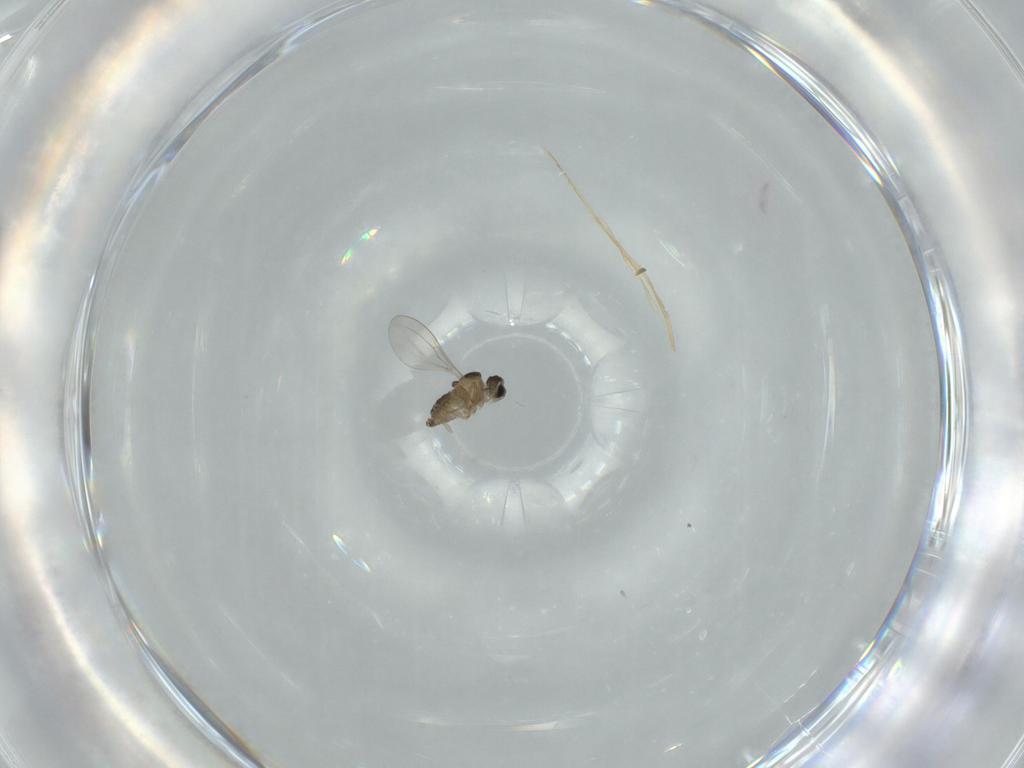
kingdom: Animalia
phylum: Arthropoda
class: Insecta
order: Diptera
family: Cecidomyiidae
